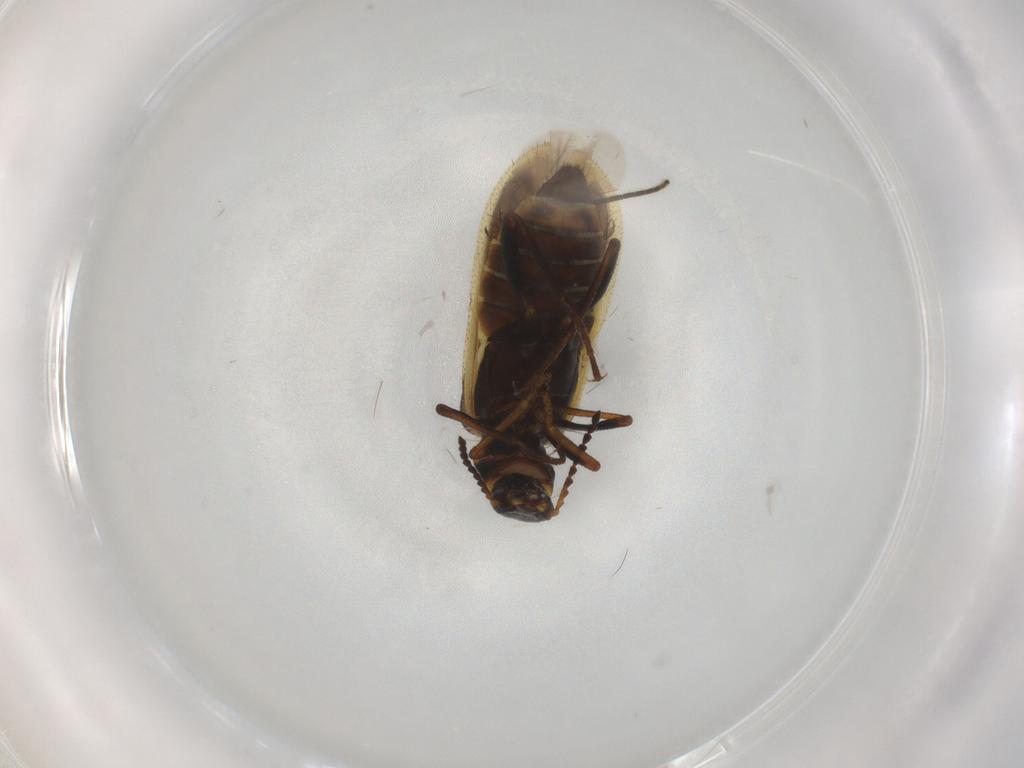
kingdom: Animalia
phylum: Arthropoda
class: Insecta
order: Coleoptera
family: Melyridae
